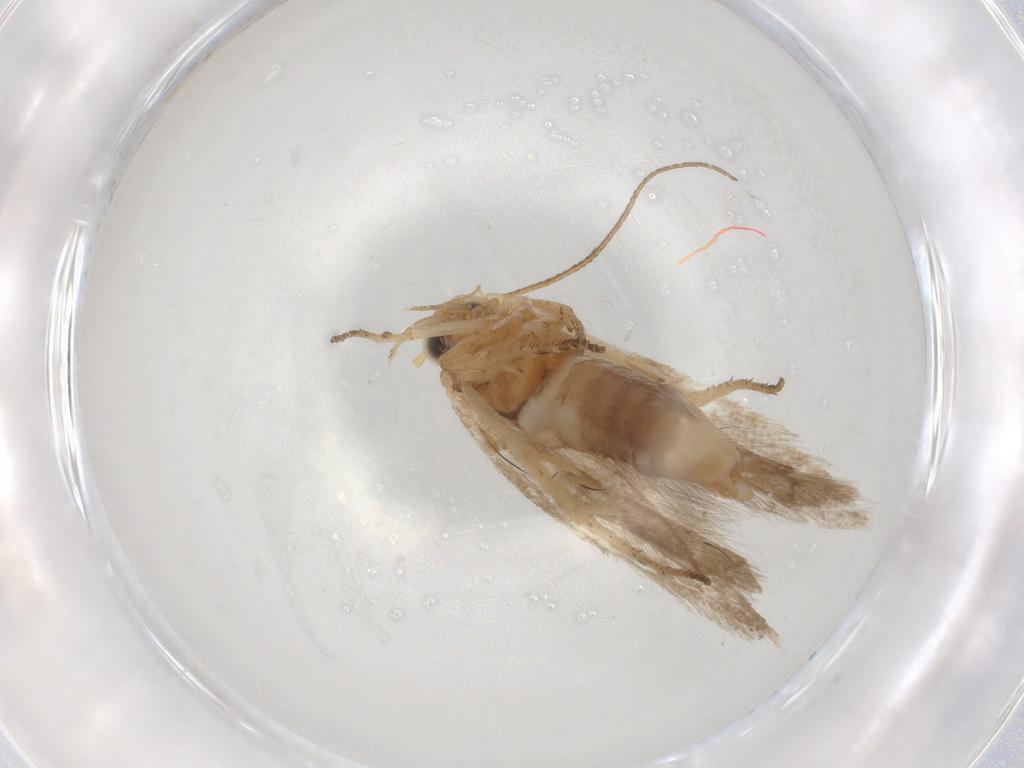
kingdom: Animalia
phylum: Arthropoda
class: Insecta
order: Lepidoptera
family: Gelechiidae
